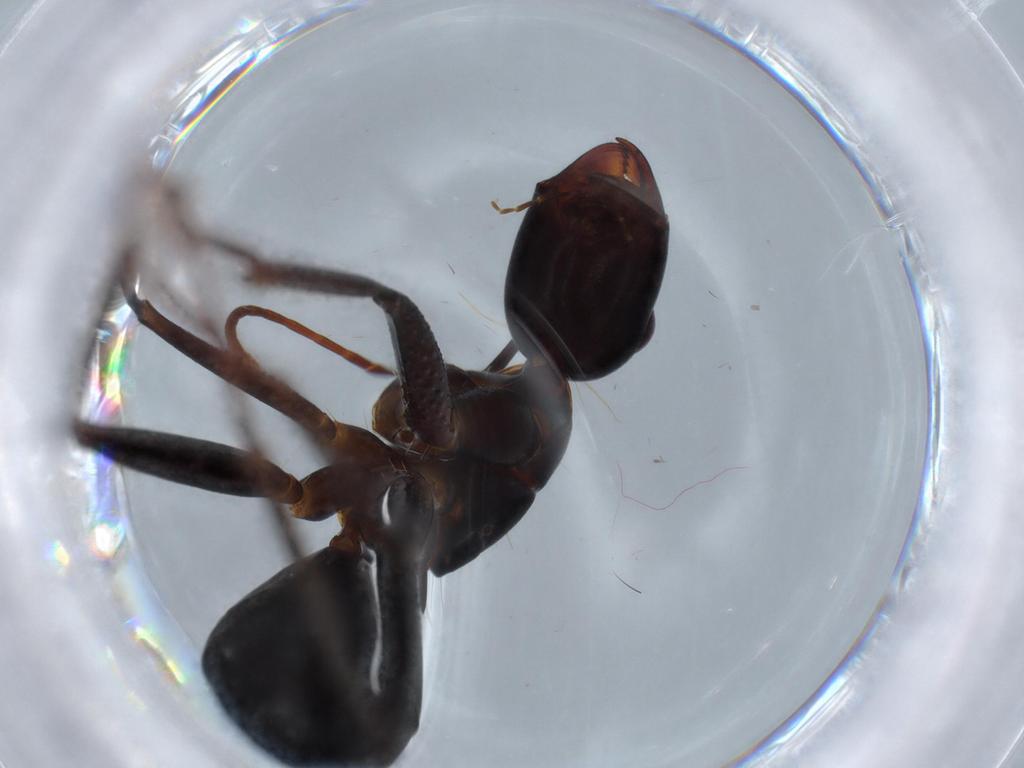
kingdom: Animalia
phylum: Arthropoda
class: Insecta
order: Hymenoptera
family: Formicidae
